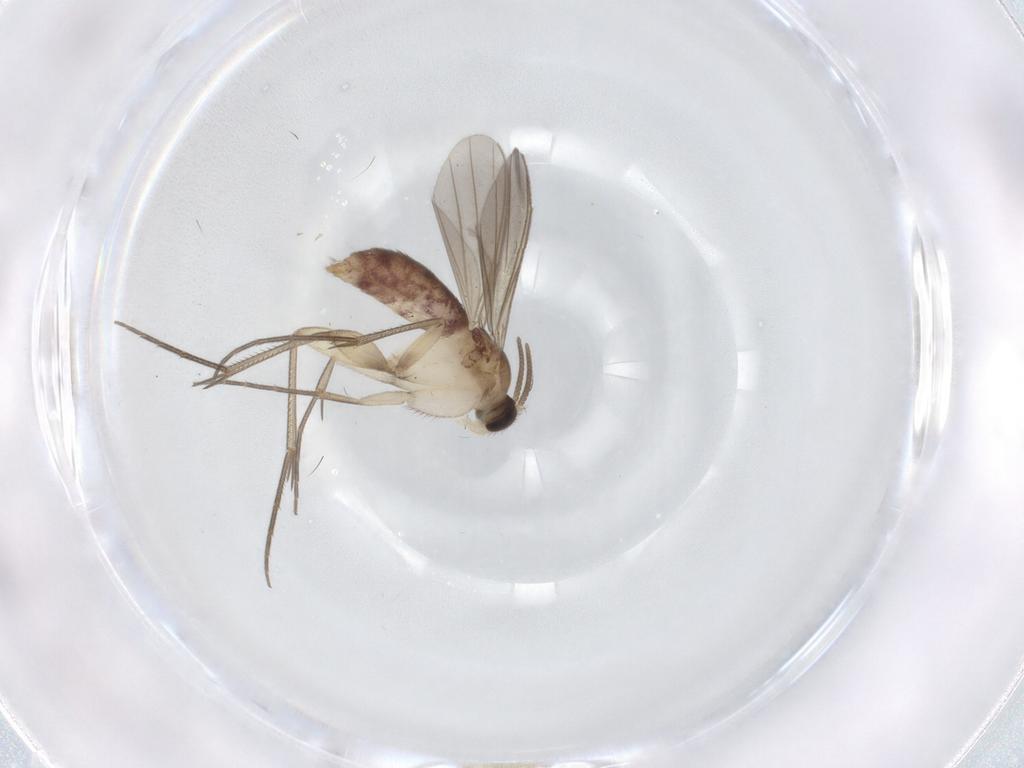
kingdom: Animalia
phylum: Arthropoda
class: Insecta
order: Diptera
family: Mycetophilidae
